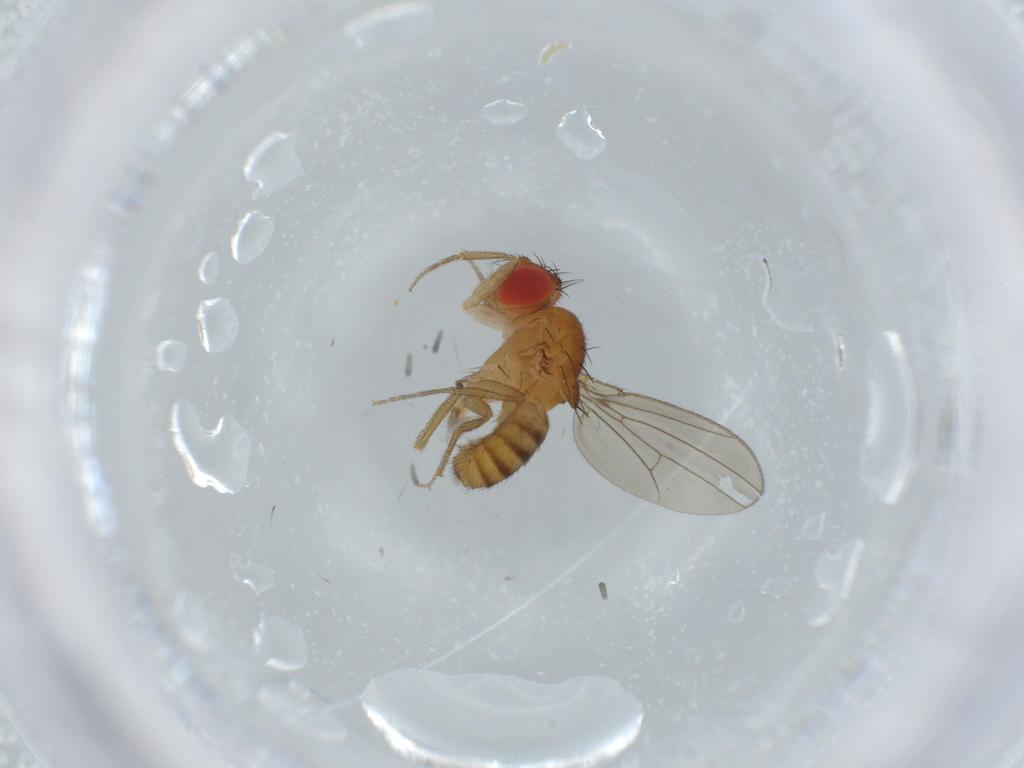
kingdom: Animalia
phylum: Arthropoda
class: Insecta
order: Diptera
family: Drosophilidae
